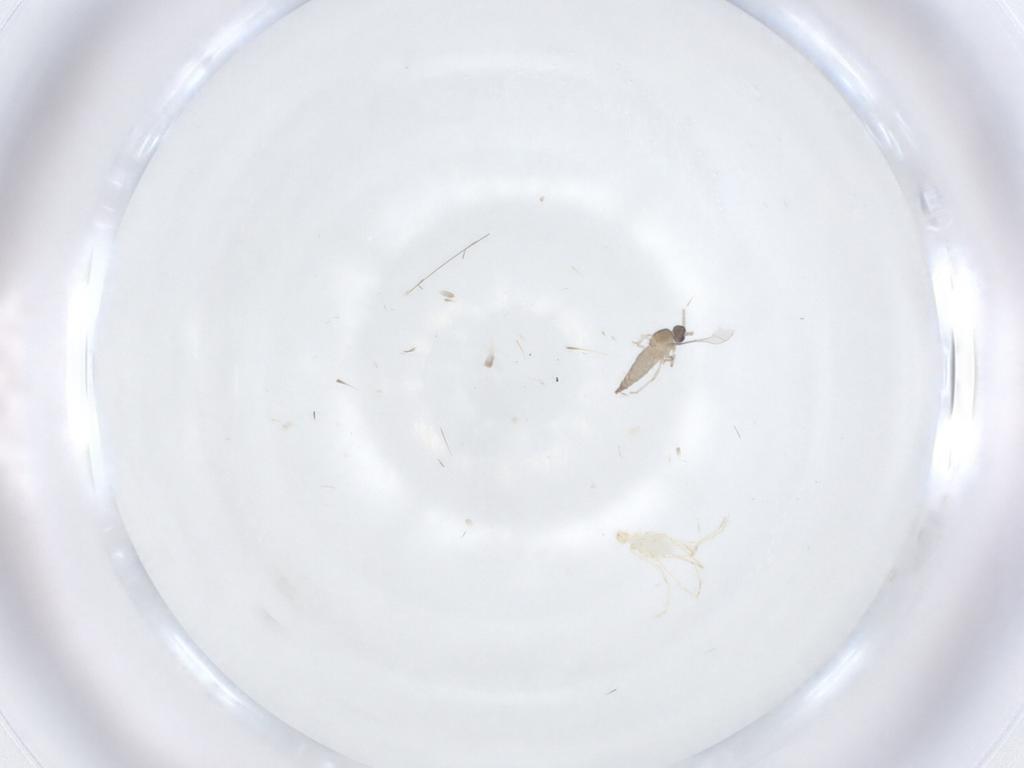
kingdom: Animalia
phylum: Arthropoda
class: Insecta
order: Diptera
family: Cecidomyiidae
